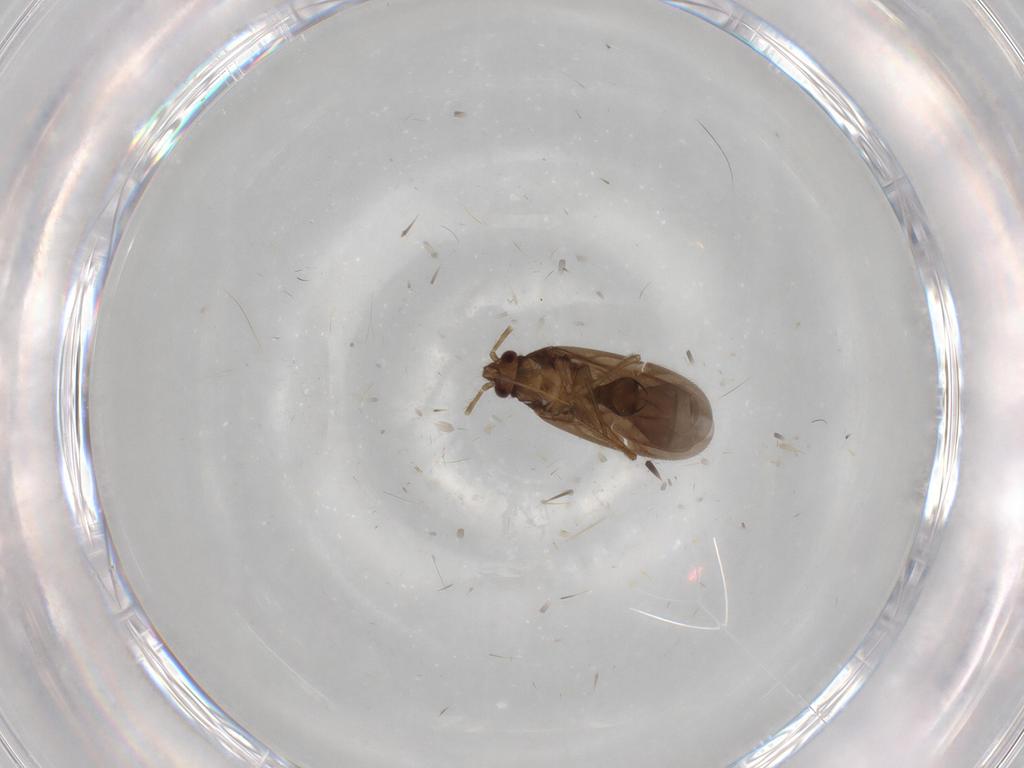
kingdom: Animalia
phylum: Arthropoda
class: Insecta
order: Hemiptera
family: Ceratocombidae
